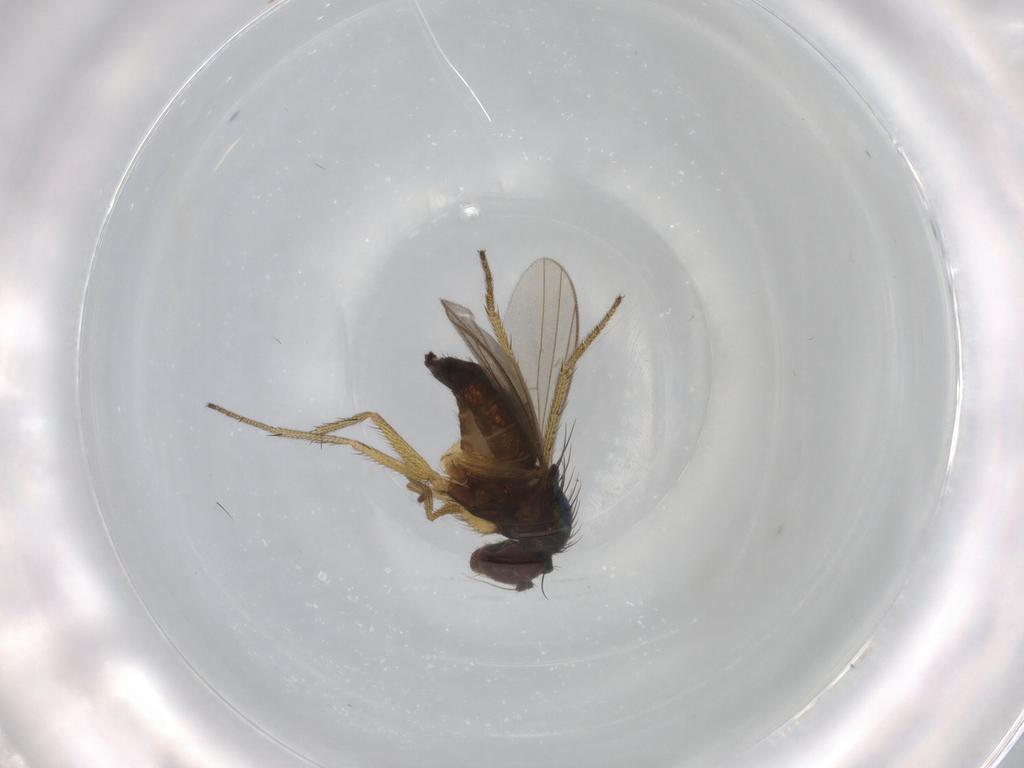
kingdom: Animalia
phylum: Arthropoda
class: Insecta
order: Diptera
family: Dolichopodidae
